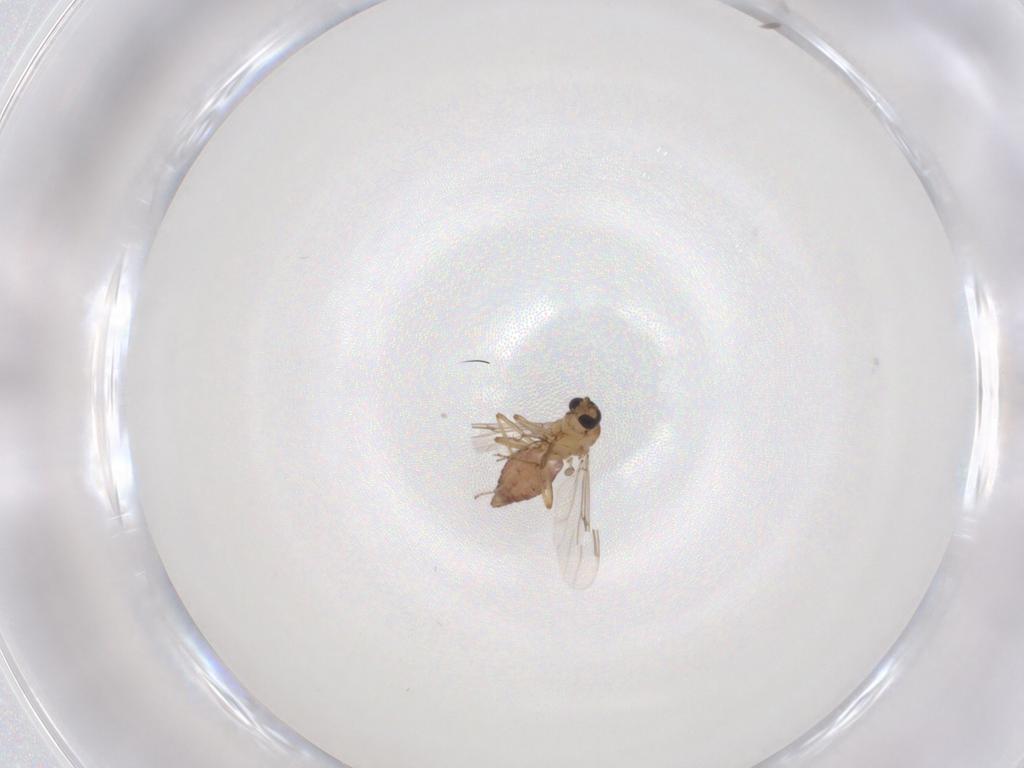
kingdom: Animalia
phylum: Arthropoda
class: Insecta
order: Diptera
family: Ceratopogonidae
